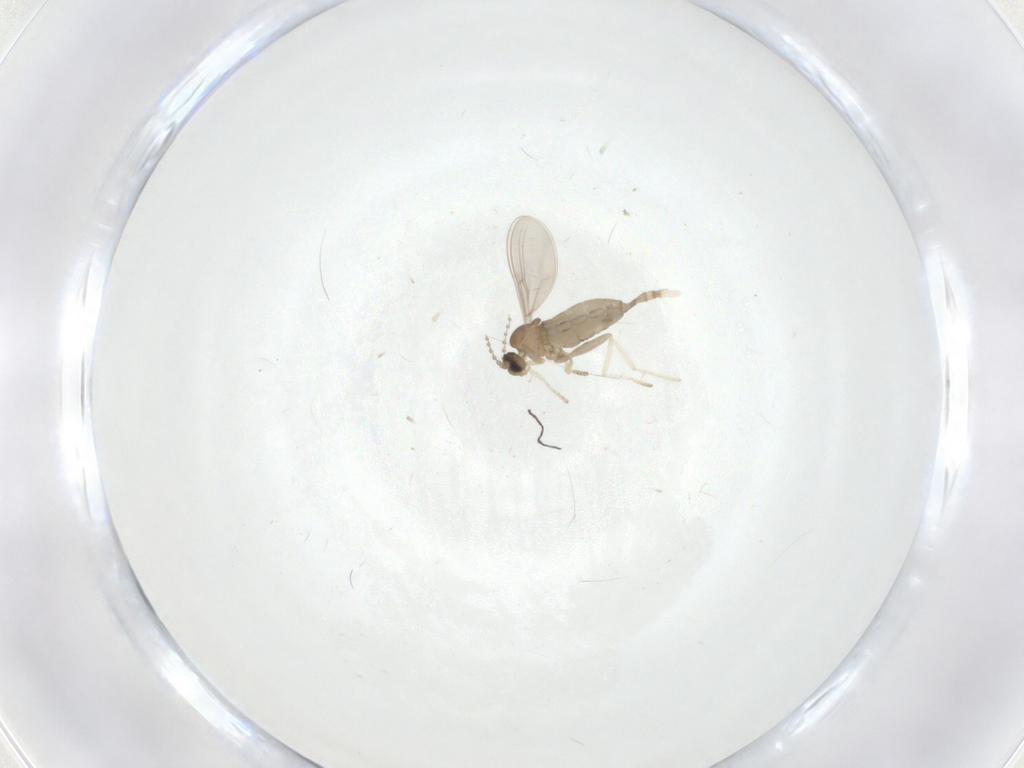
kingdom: Animalia
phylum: Arthropoda
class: Insecta
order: Diptera
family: Cecidomyiidae
